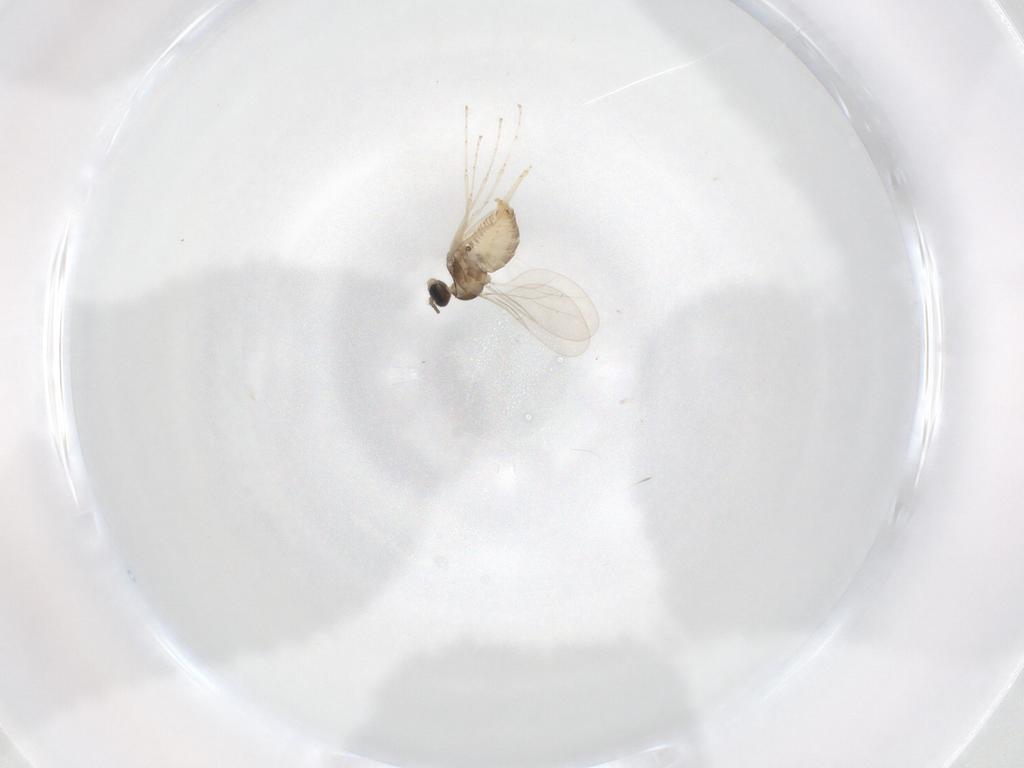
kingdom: Animalia
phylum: Arthropoda
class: Insecta
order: Diptera
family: Cecidomyiidae
